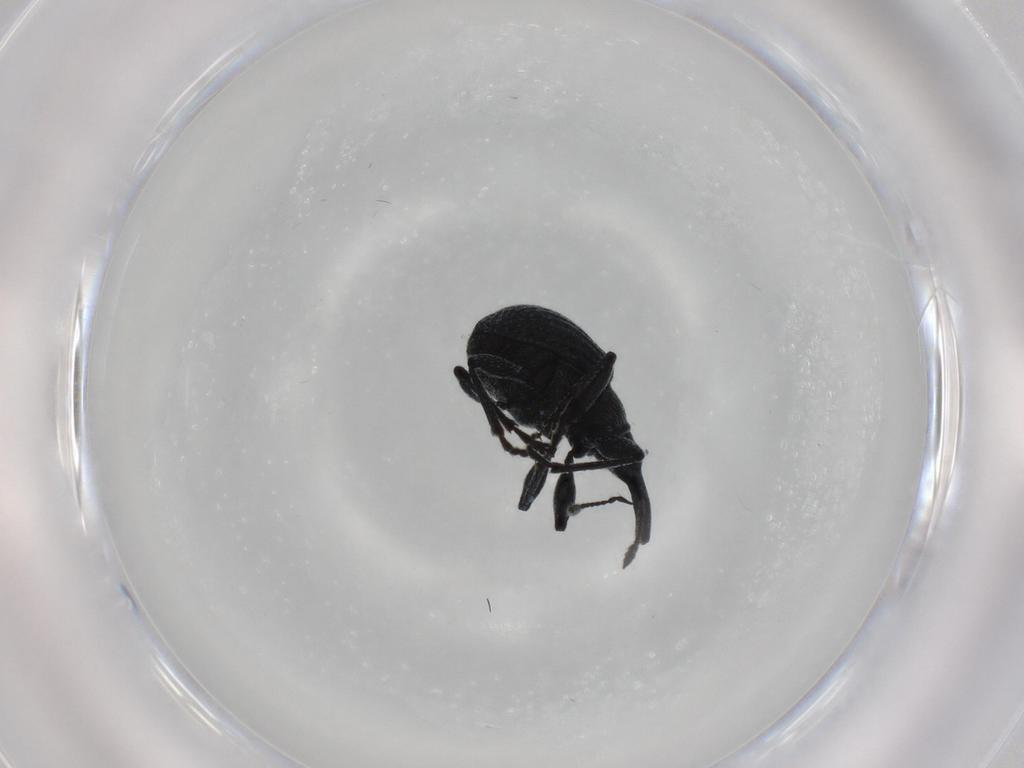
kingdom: Animalia
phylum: Arthropoda
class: Insecta
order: Coleoptera
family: Brentidae
